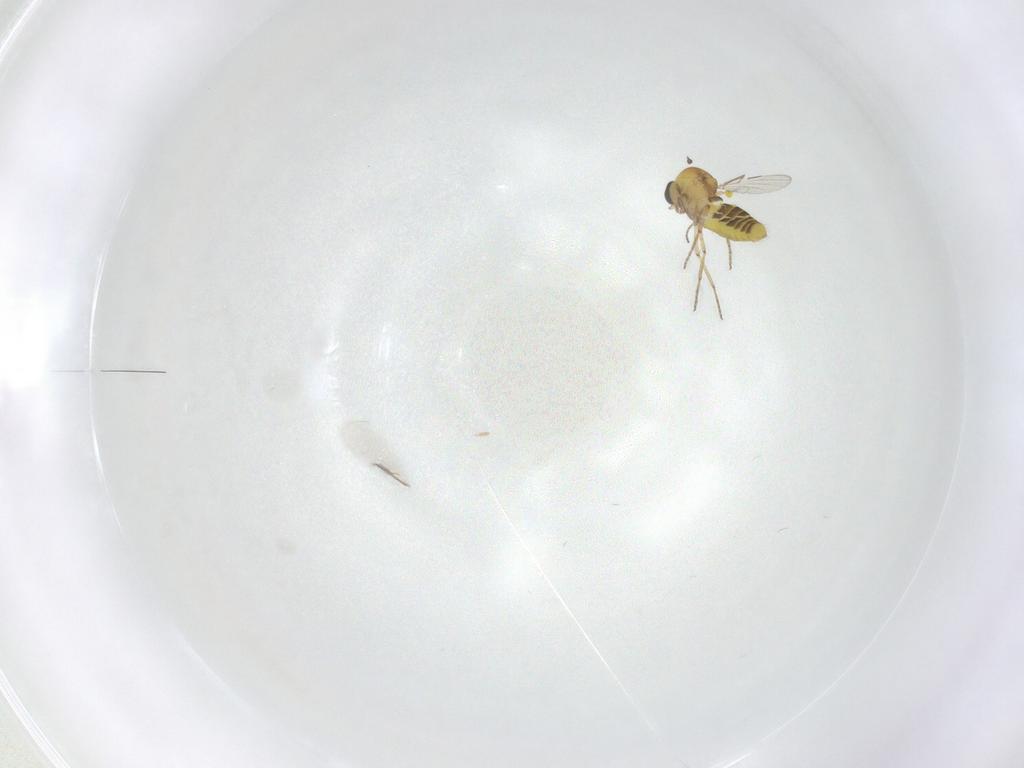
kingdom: Animalia
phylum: Arthropoda
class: Insecta
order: Diptera
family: Ceratopogonidae
